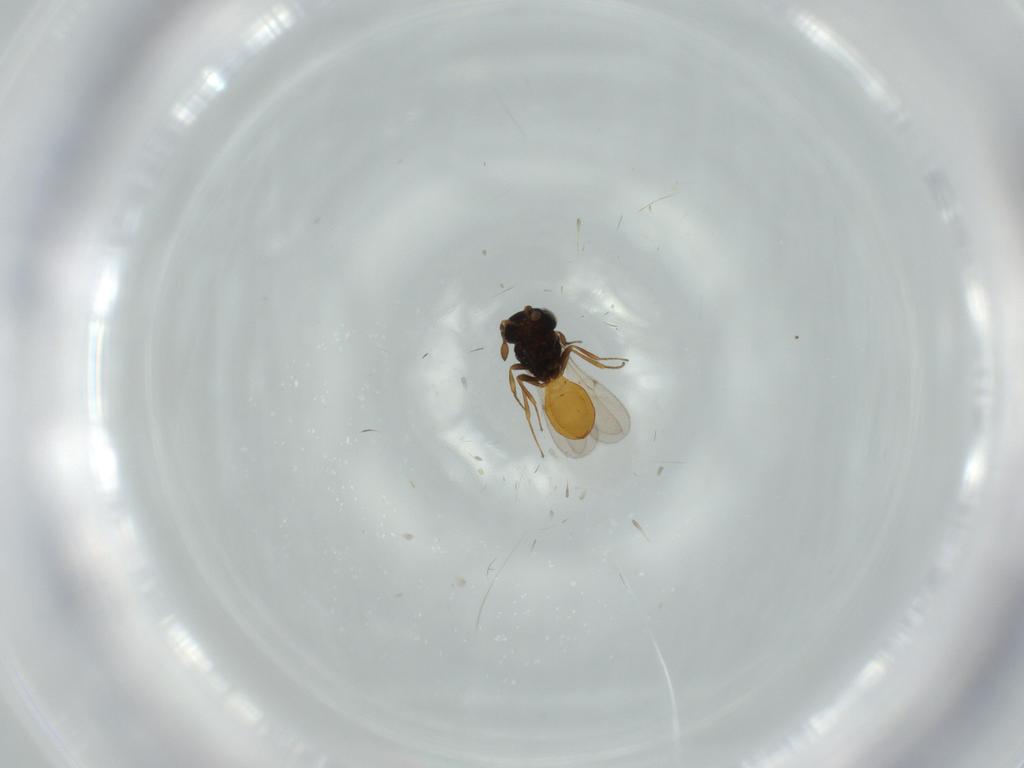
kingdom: Animalia
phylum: Arthropoda
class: Insecta
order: Hymenoptera
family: Scelionidae
